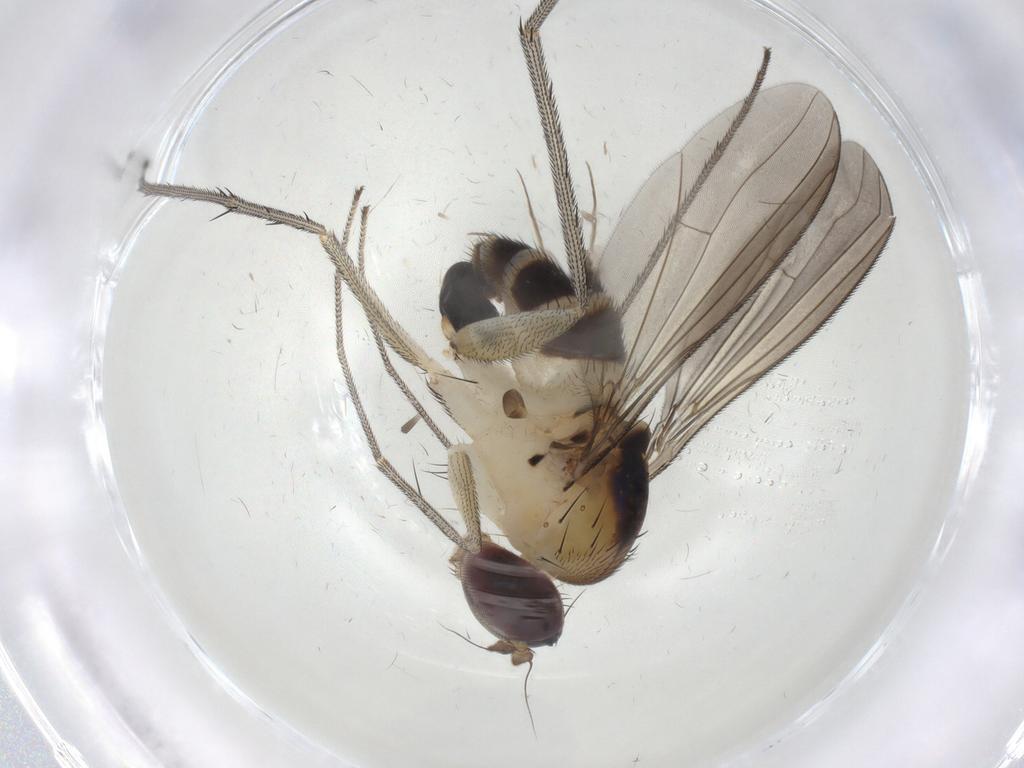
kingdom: Animalia
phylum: Arthropoda
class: Insecta
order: Diptera
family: Phoridae
